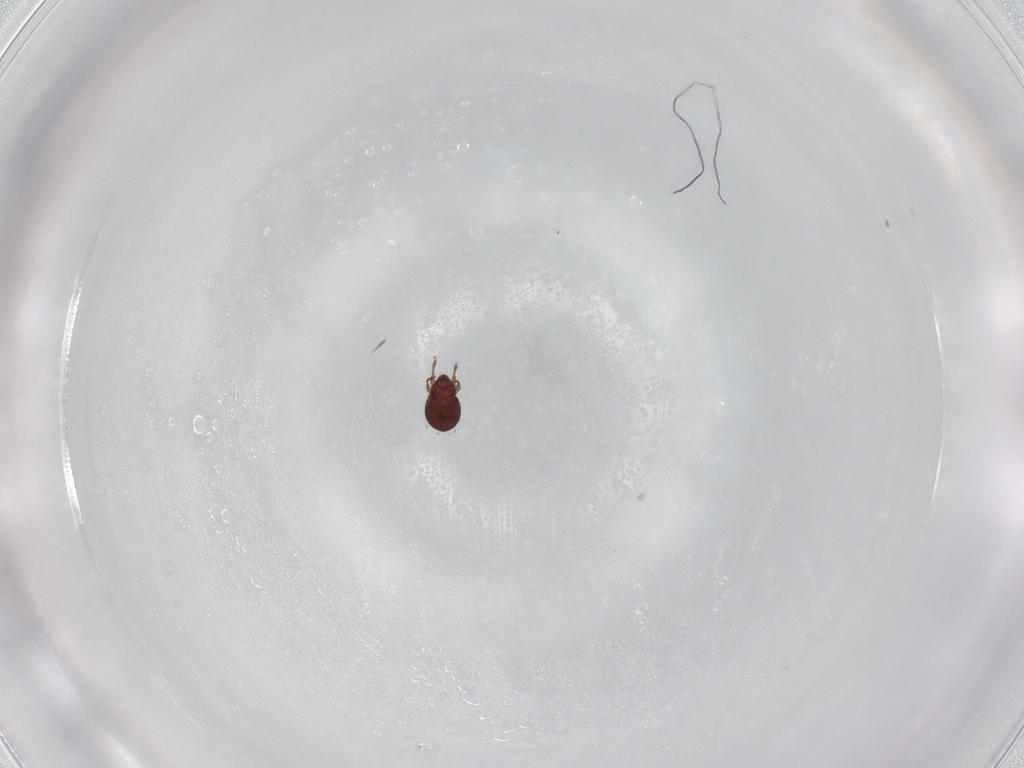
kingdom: Animalia
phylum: Arthropoda
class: Arachnida
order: Sarcoptiformes
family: Scheloribatidae
